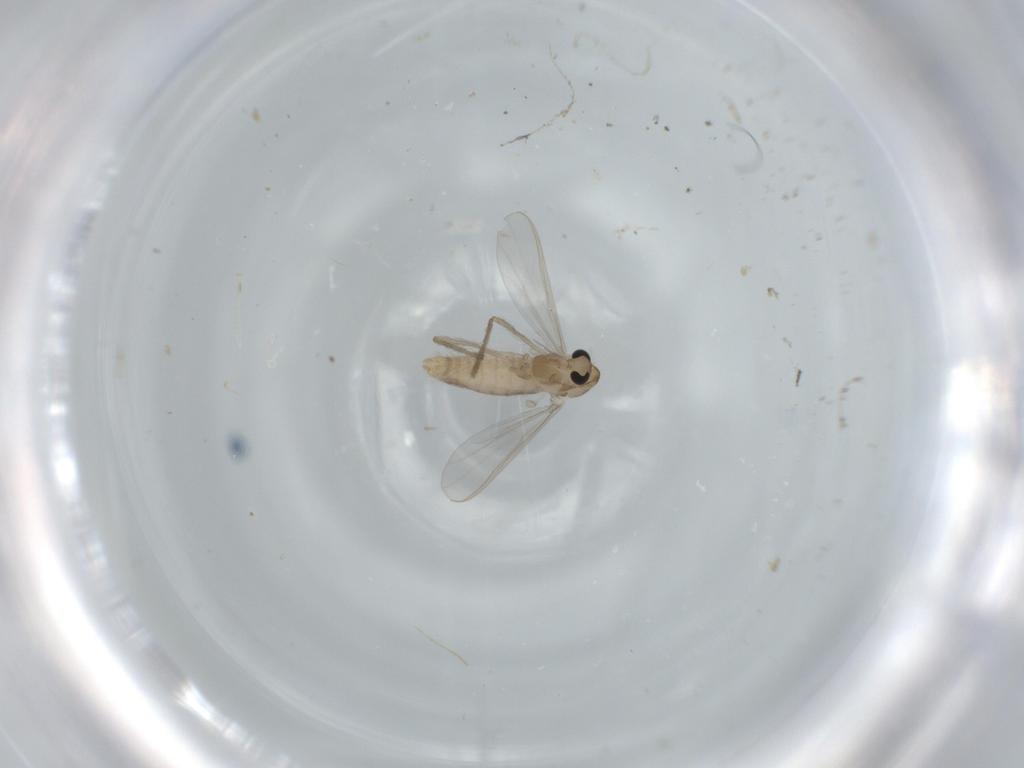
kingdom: Animalia
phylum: Arthropoda
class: Insecta
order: Diptera
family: Chironomidae
